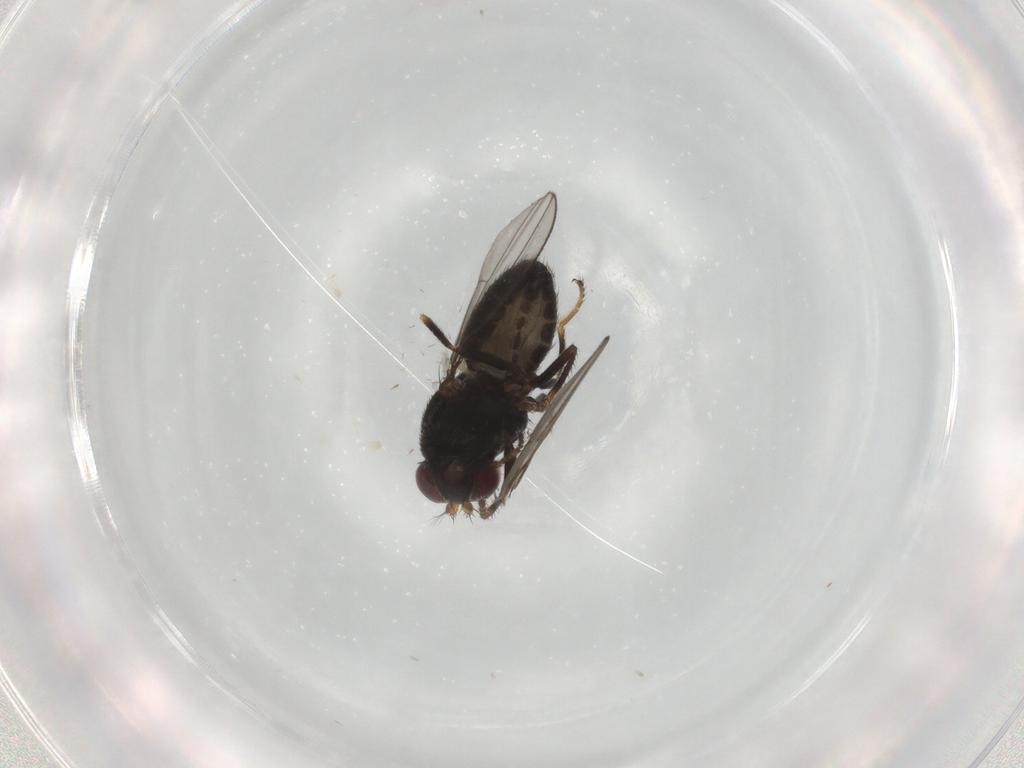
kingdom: Animalia
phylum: Arthropoda
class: Insecta
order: Diptera
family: Ephydridae
